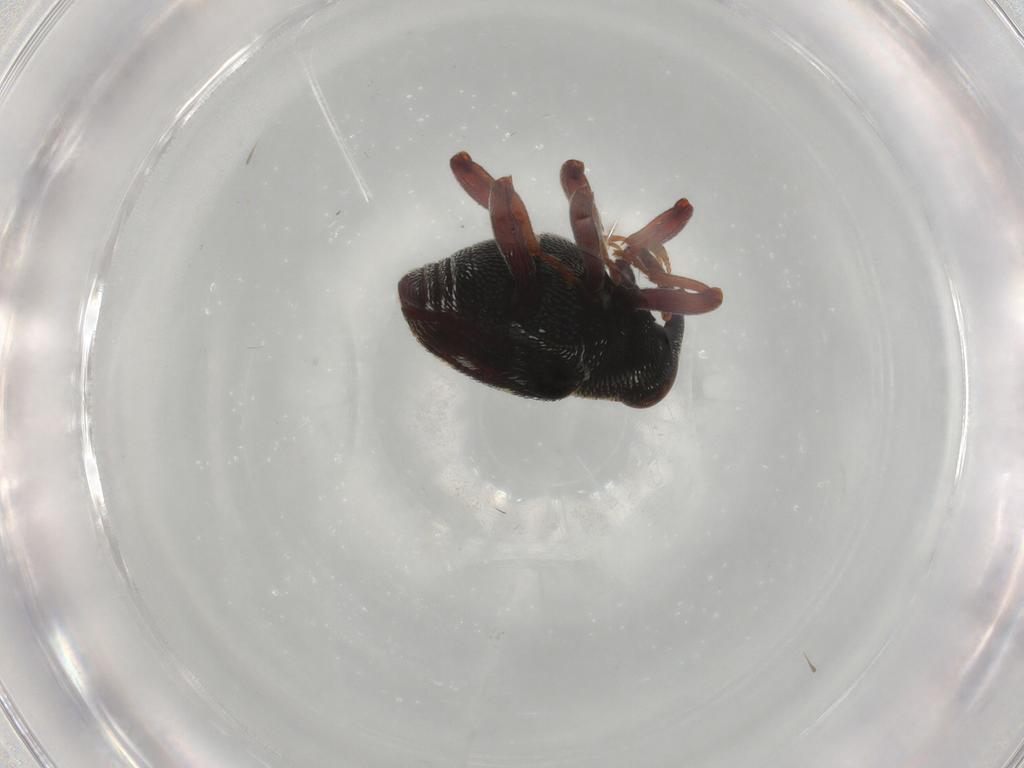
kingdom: Animalia
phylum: Arthropoda
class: Insecta
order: Coleoptera
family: Curculionidae
